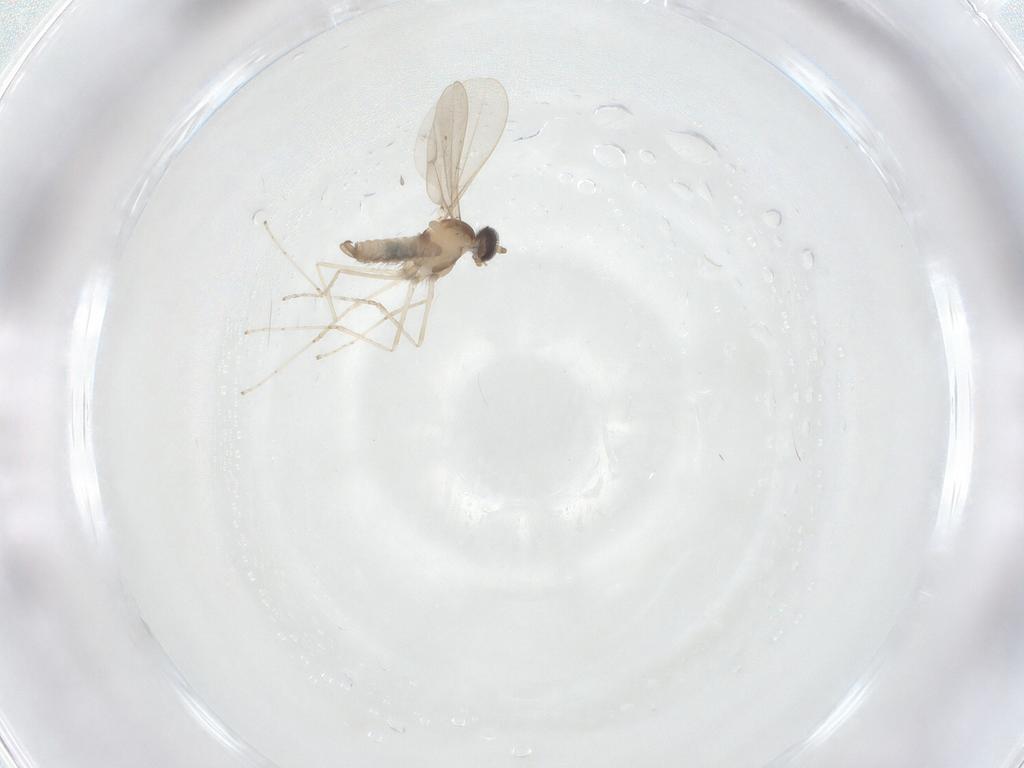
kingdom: Animalia
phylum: Arthropoda
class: Insecta
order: Diptera
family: Cecidomyiidae
